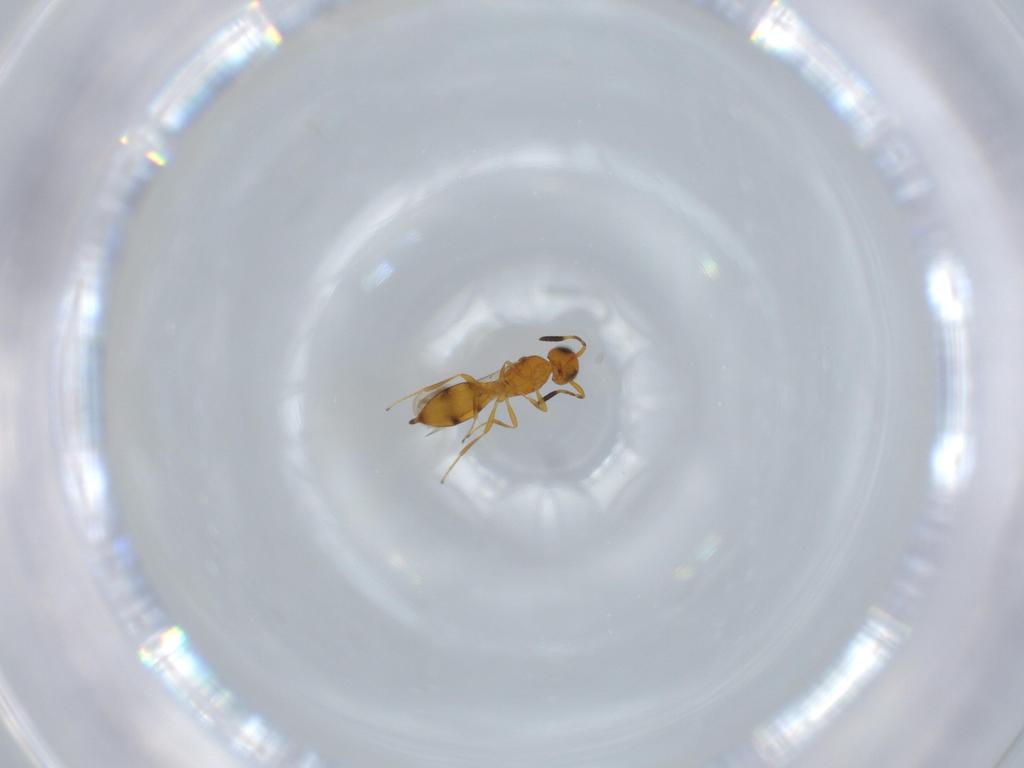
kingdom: Animalia
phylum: Arthropoda
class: Insecta
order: Hymenoptera
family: Scelionidae
